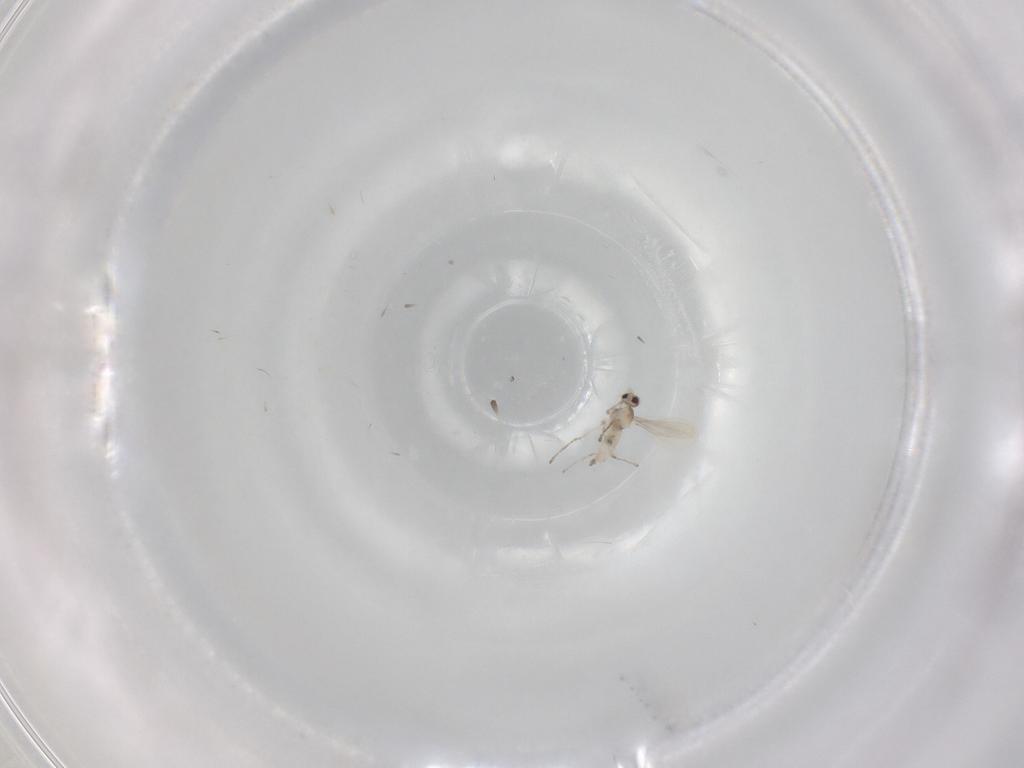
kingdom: Animalia
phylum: Arthropoda
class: Insecta
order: Diptera
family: Cecidomyiidae
